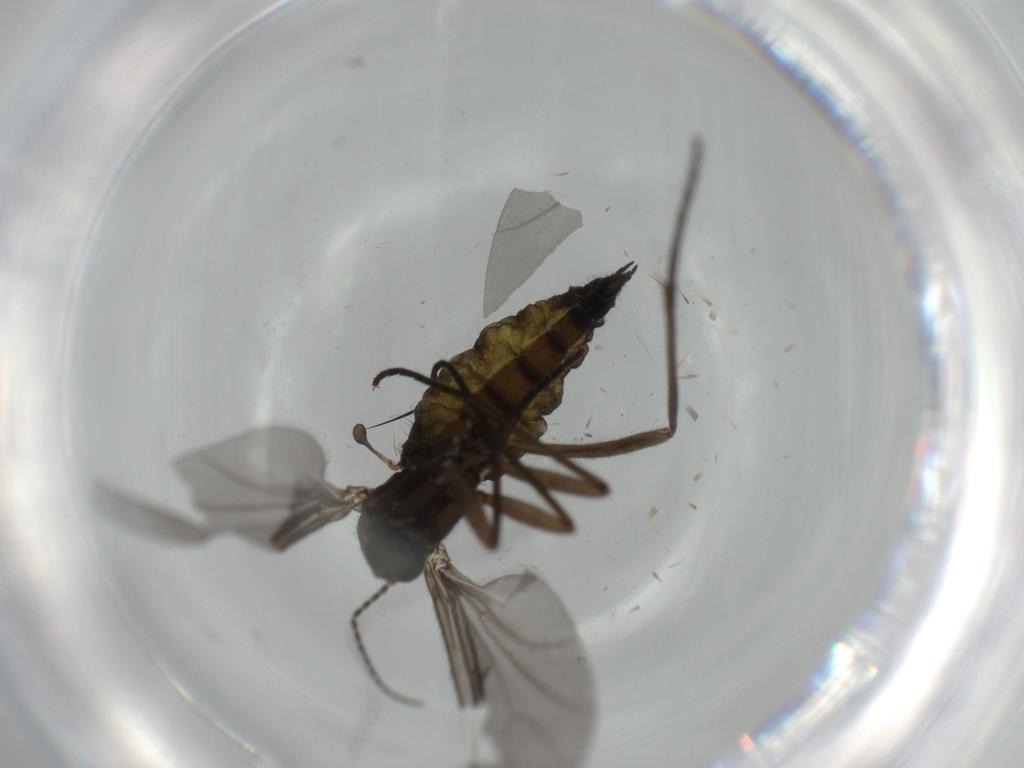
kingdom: Animalia
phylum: Arthropoda
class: Insecta
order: Diptera
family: Sciaridae
